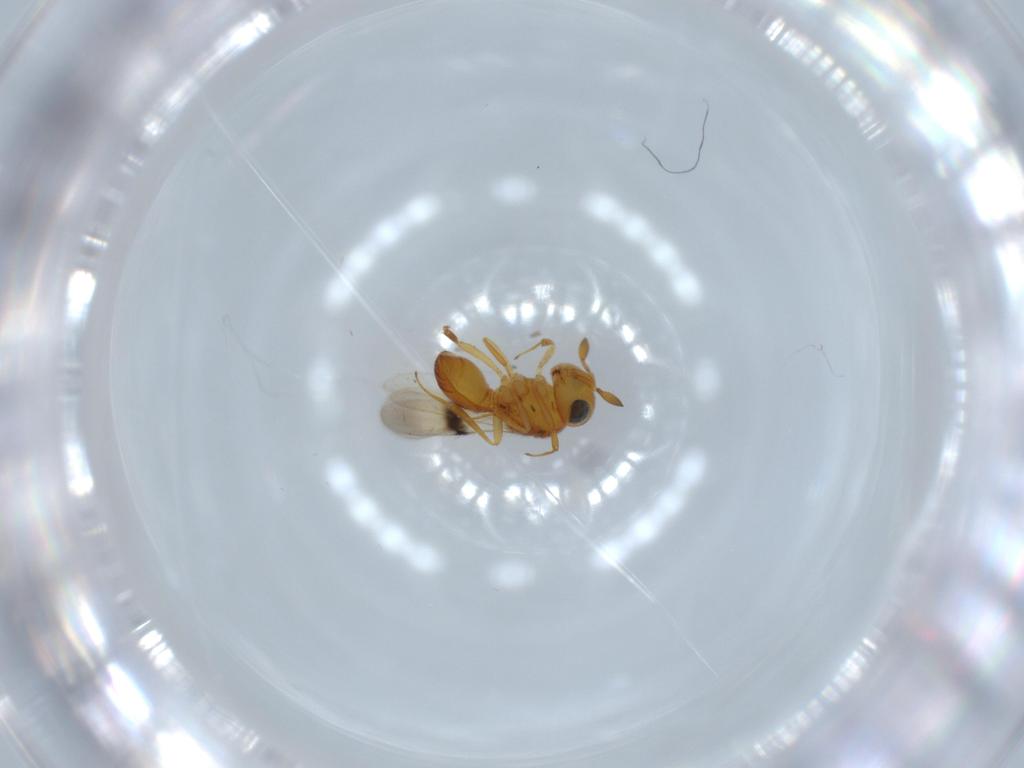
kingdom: Animalia
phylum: Arthropoda
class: Insecta
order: Hymenoptera
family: Scelionidae
